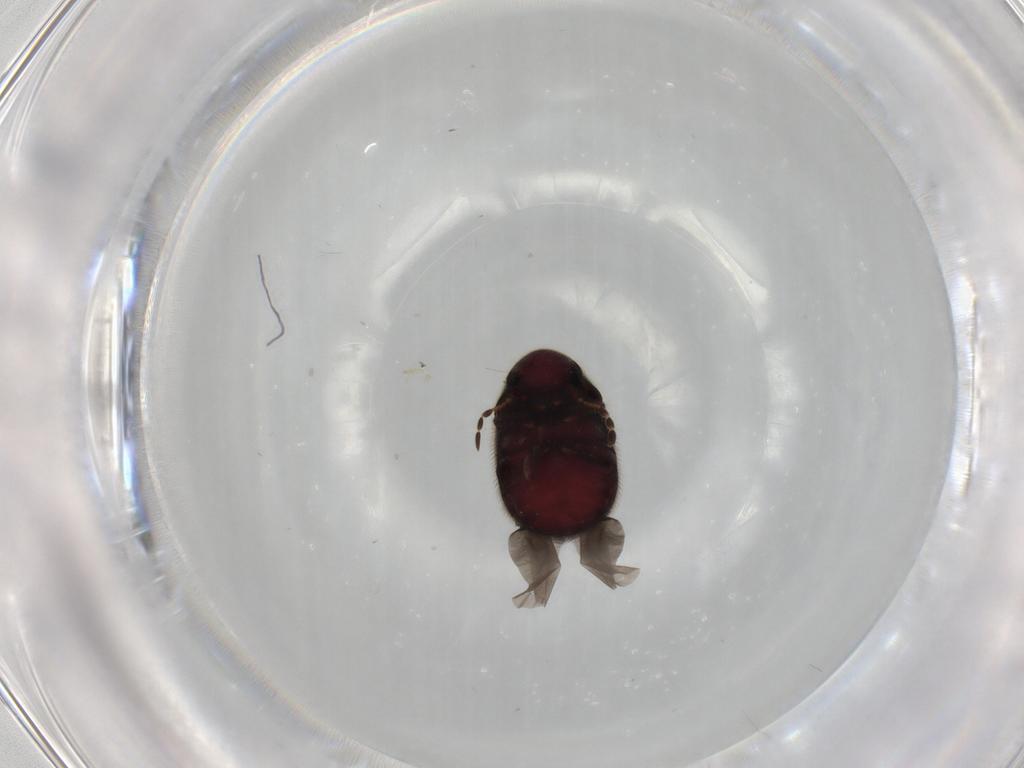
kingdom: Animalia
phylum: Arthropoda
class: Insecta
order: Coleoptera
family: Ptinidae
